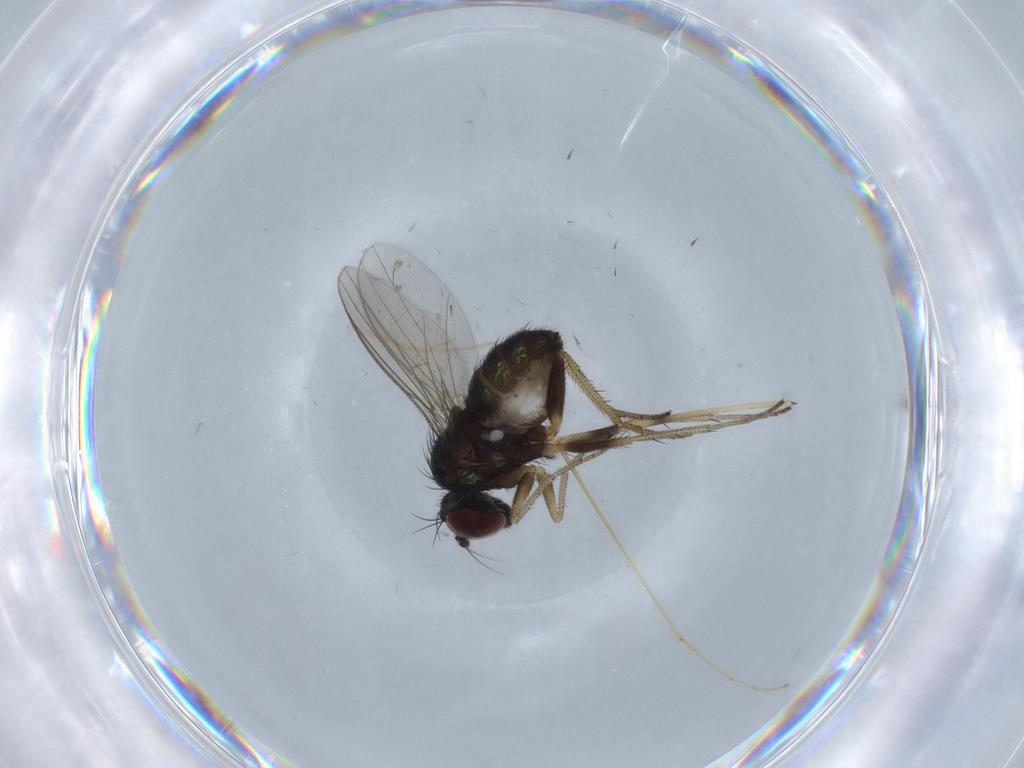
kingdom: Animalia
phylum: Arthropoda
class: Insecta
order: Diptera
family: Limoniidae
